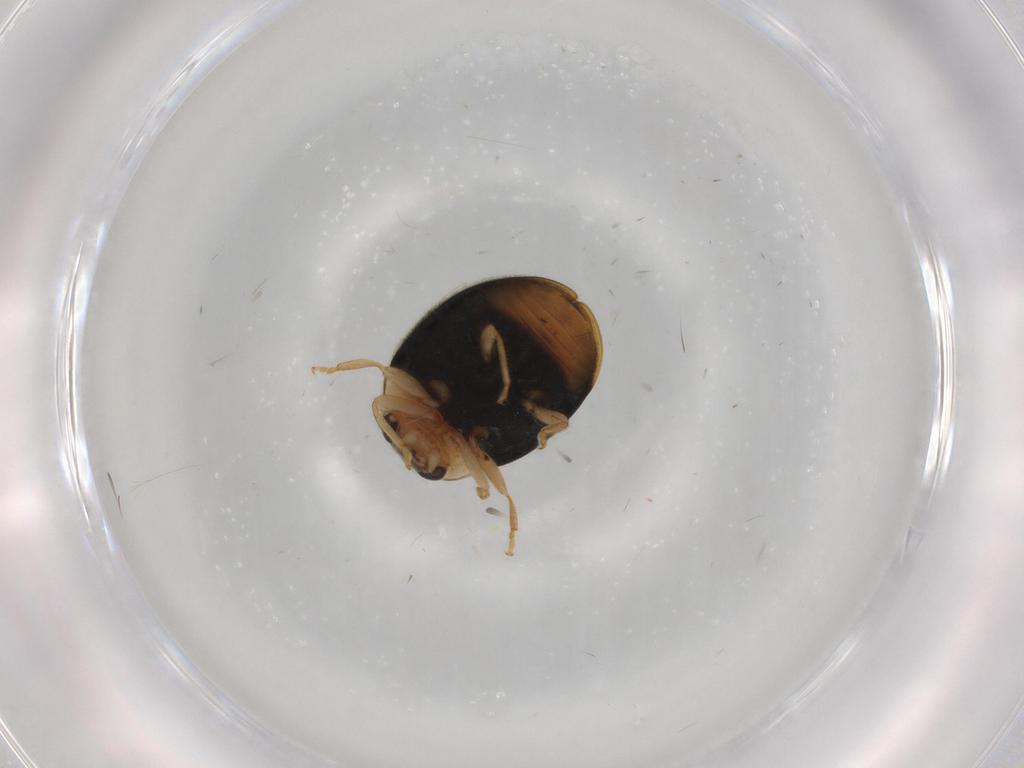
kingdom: Animalia
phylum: Arthropoda
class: Insecta
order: Coleoptera
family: Coccinellidae
